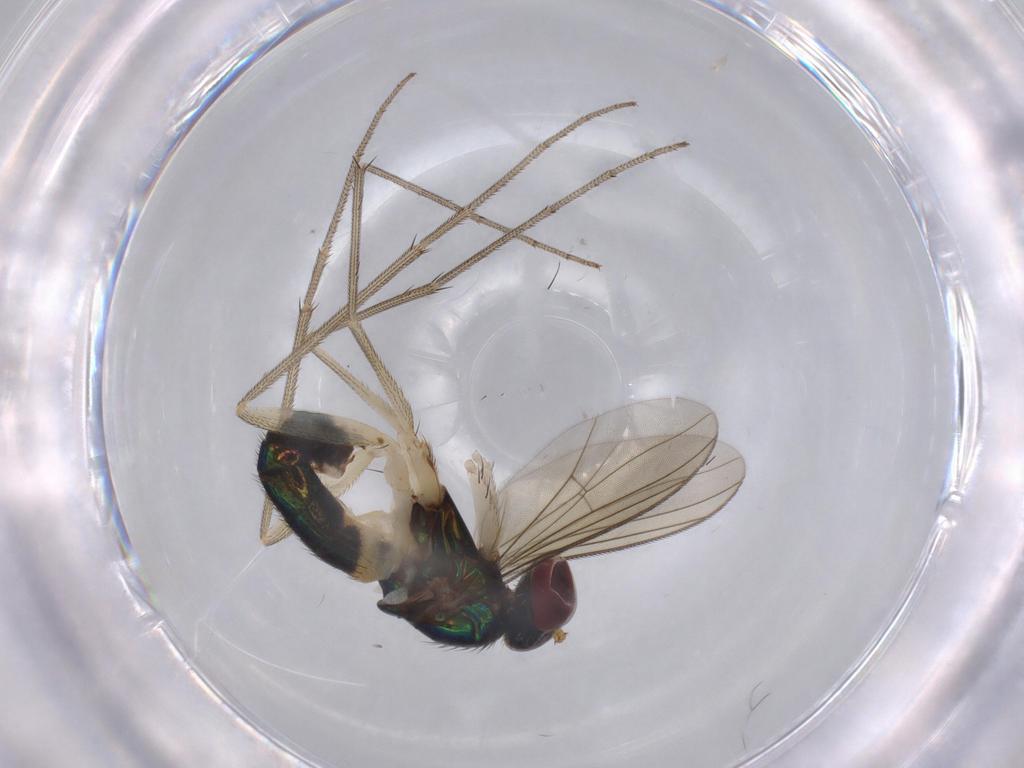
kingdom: Animalia
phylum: Arthropoda
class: Insecta
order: Diptera
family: Dolichopodidae
